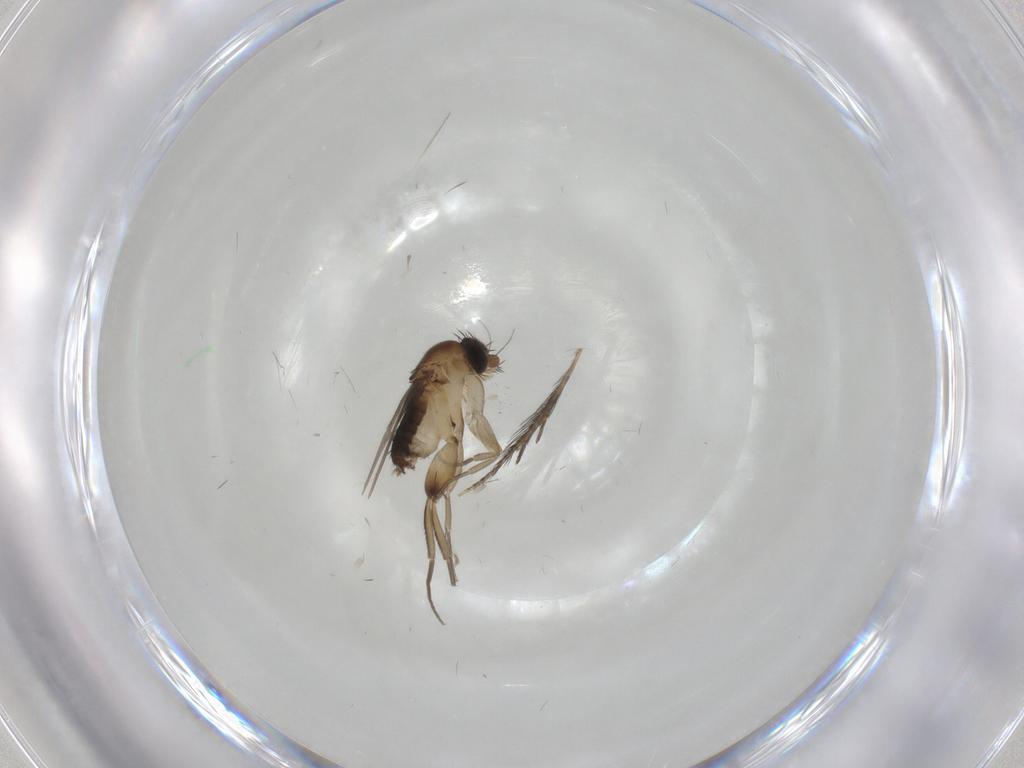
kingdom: Animalia
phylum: Arthropoda
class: Insecta
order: Diptera
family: Phoridae
